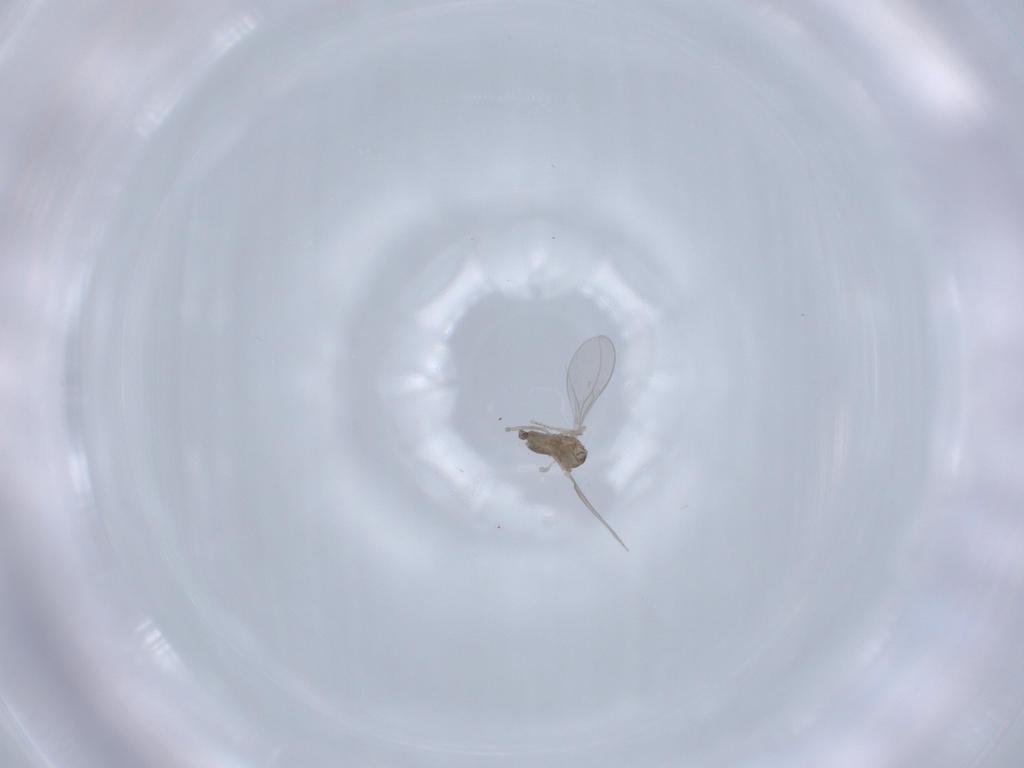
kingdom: Animalia
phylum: Arthropoda
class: Insecta
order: Diptera
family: Cecidomyiidae
